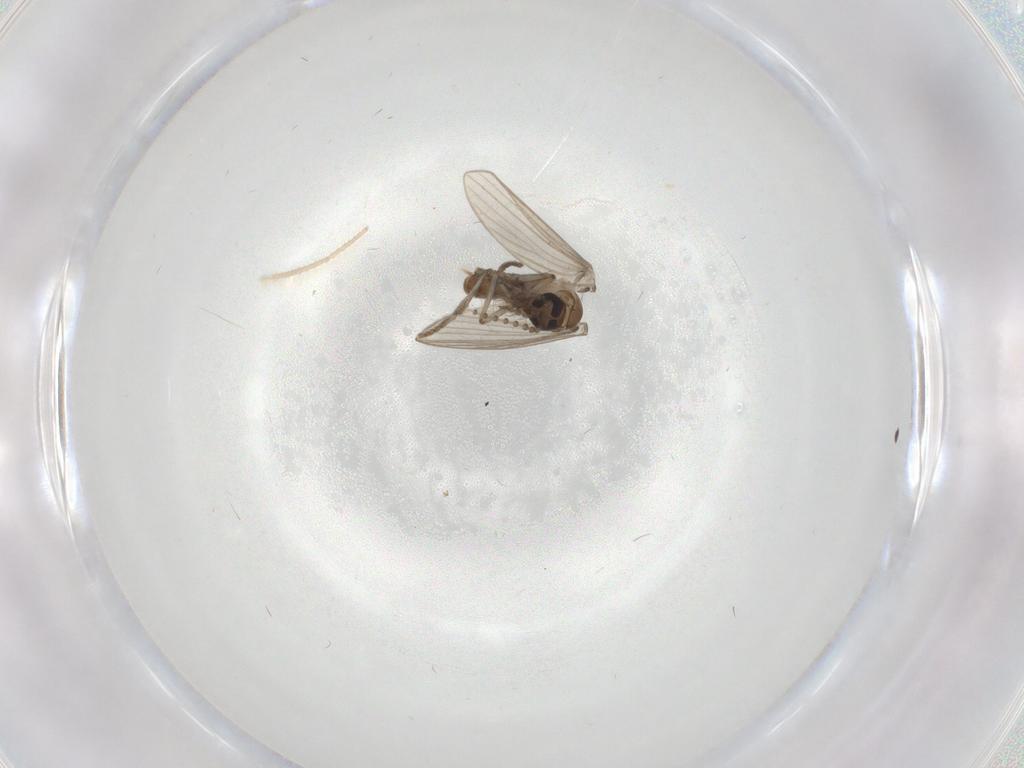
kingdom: Animalia
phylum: Arthropoda
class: Insecta
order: Diptera
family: Psychodidae
